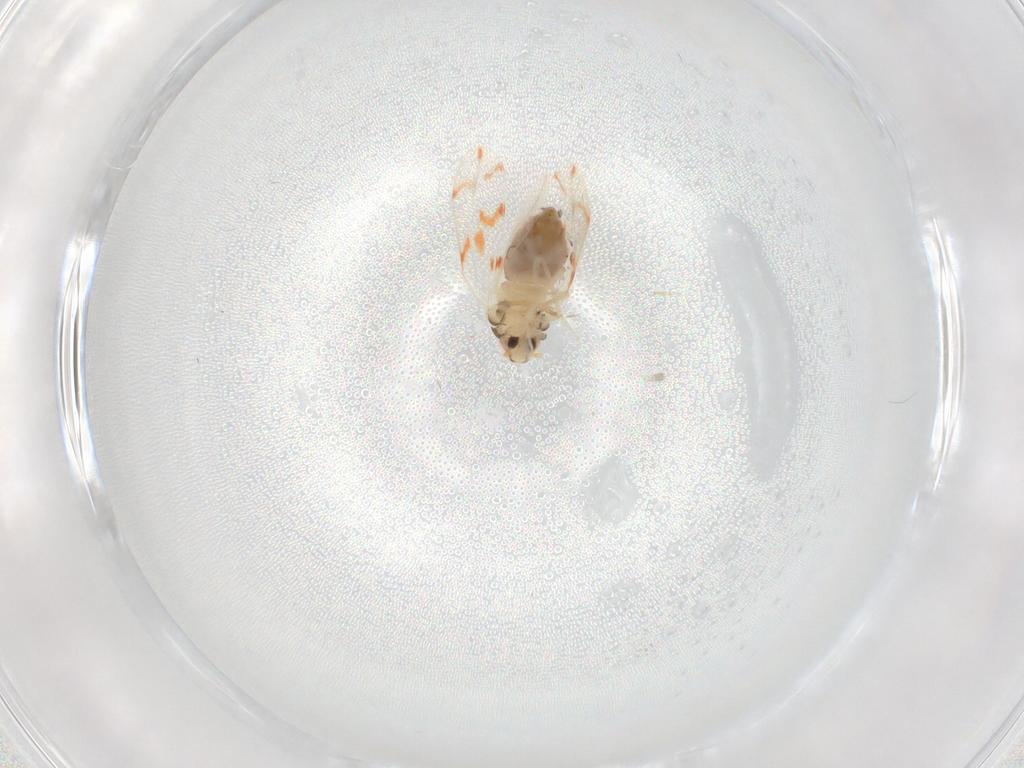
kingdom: Animalia
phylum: Arthropoda
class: Insecta
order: Hemiptera
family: Aleyrodidae
